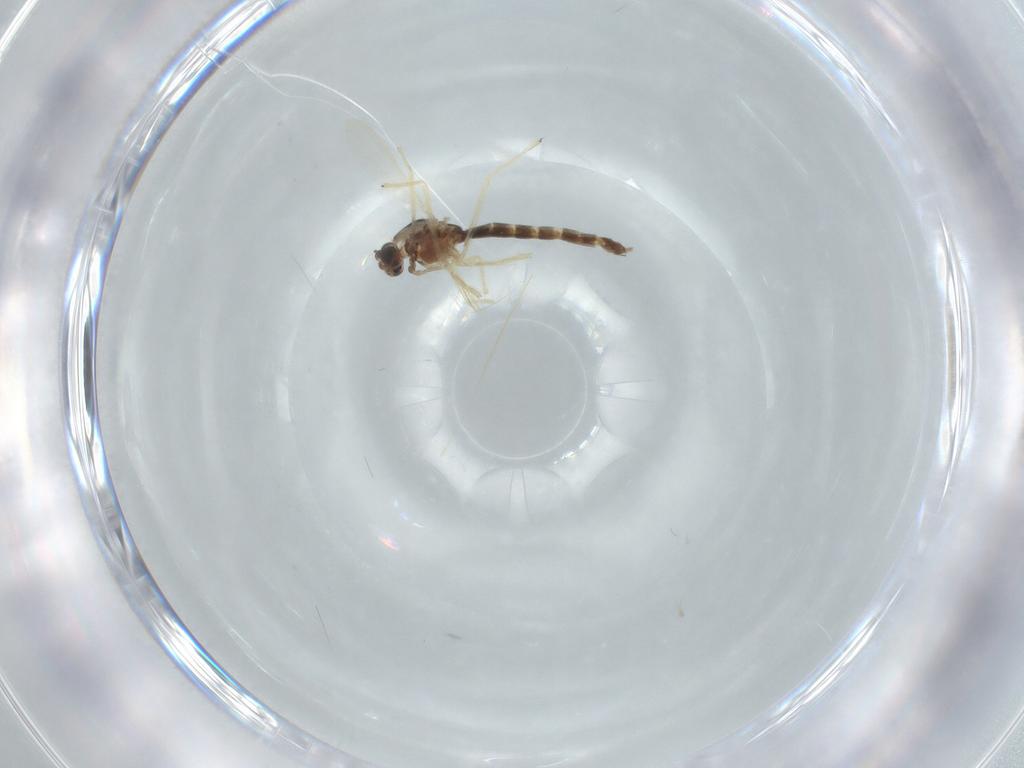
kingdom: Animalia
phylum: Arthropoda
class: Insecta
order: Diptera
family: Chironomidae
